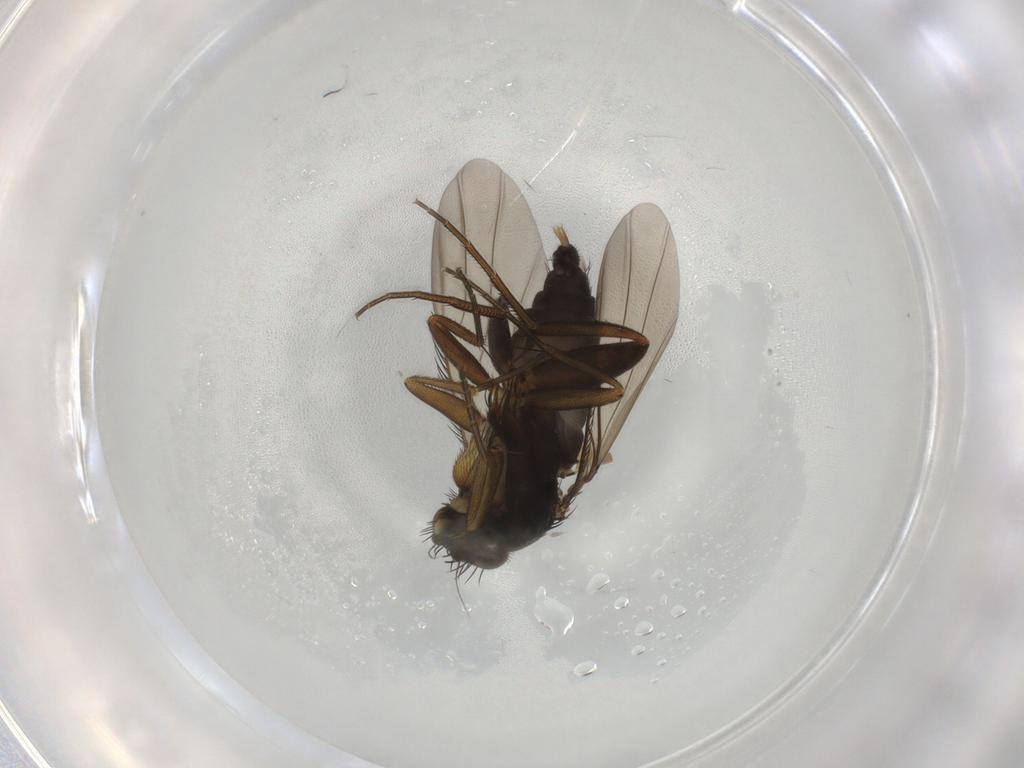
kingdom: Animalia
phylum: Arthropoda
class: Insecta
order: Diptera
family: Phoridae
